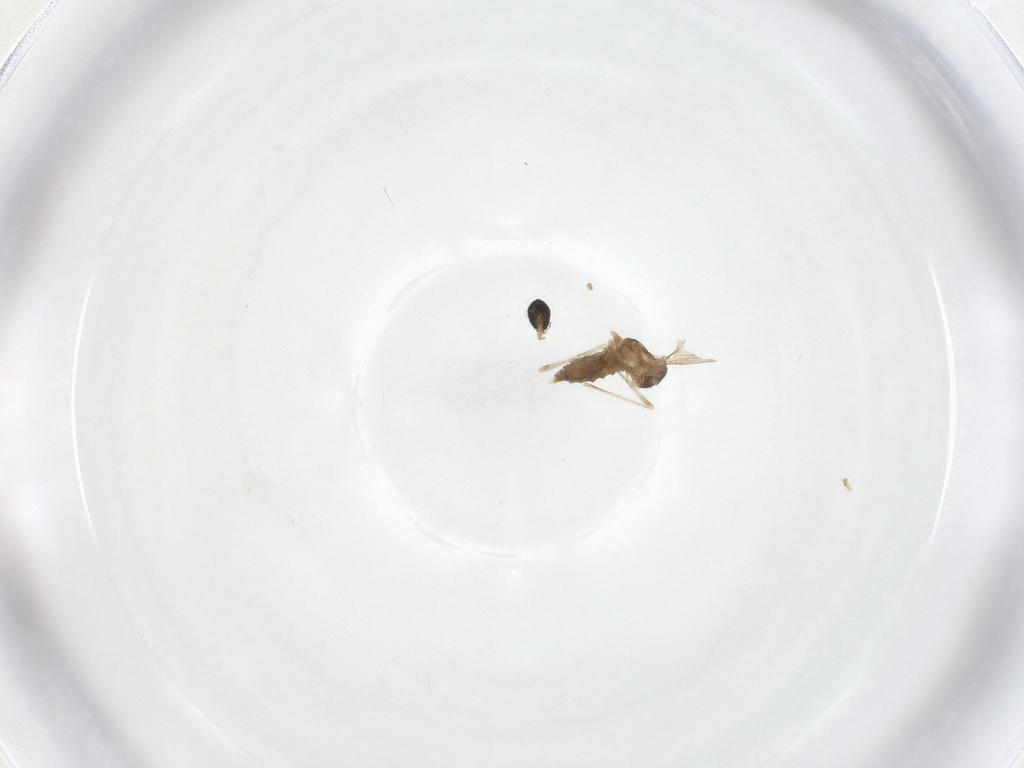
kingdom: Animalia
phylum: Arthropoda
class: Insecta
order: Diptera
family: Cecidomyiidae
